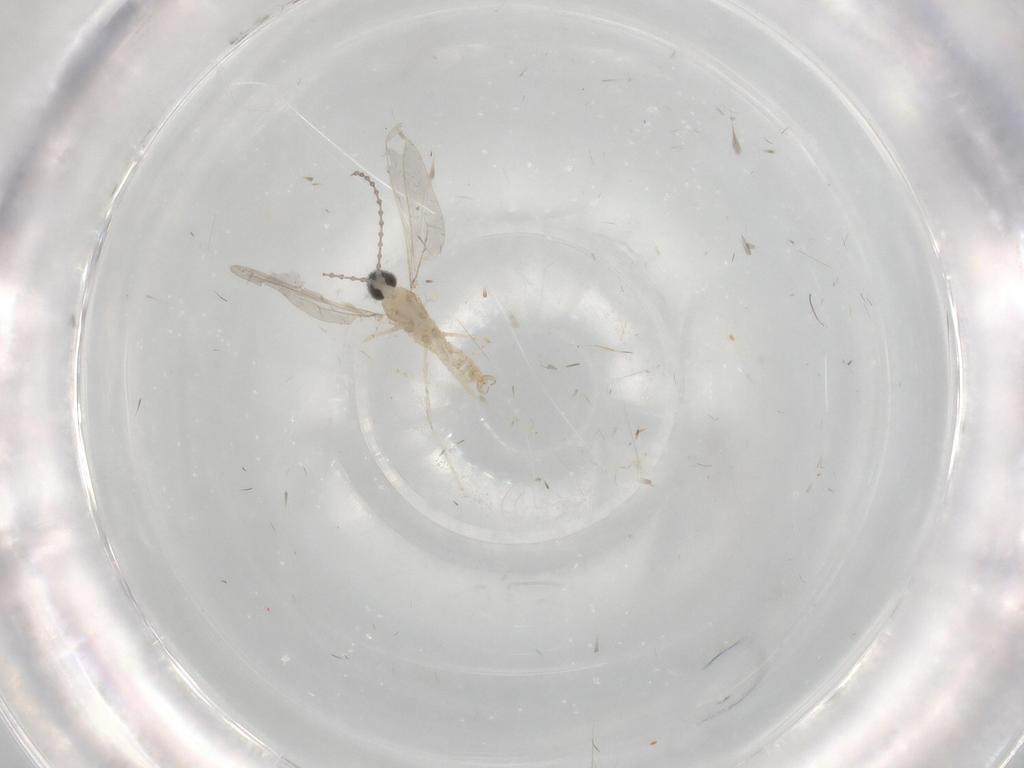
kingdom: Animalia
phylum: Arthropoda
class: Insecta
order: Diptera
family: Cecidomyiidae
